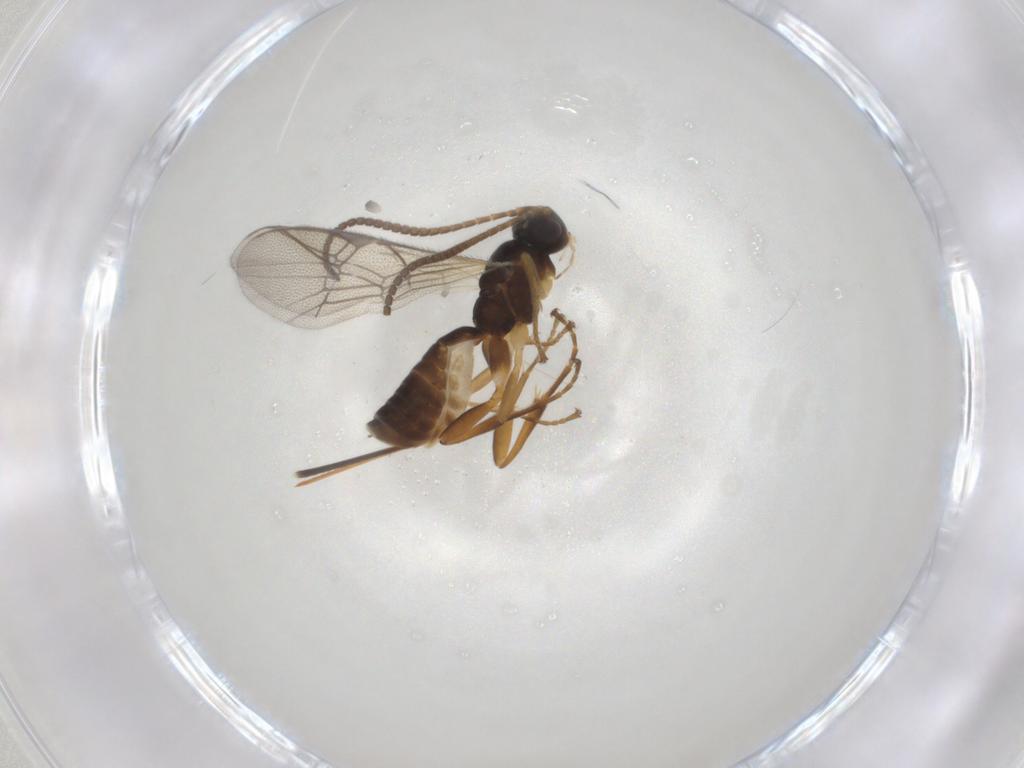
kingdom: Animalia
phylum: Arthropoda
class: Insecta
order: Hymenoptera
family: Ichneumonidae
